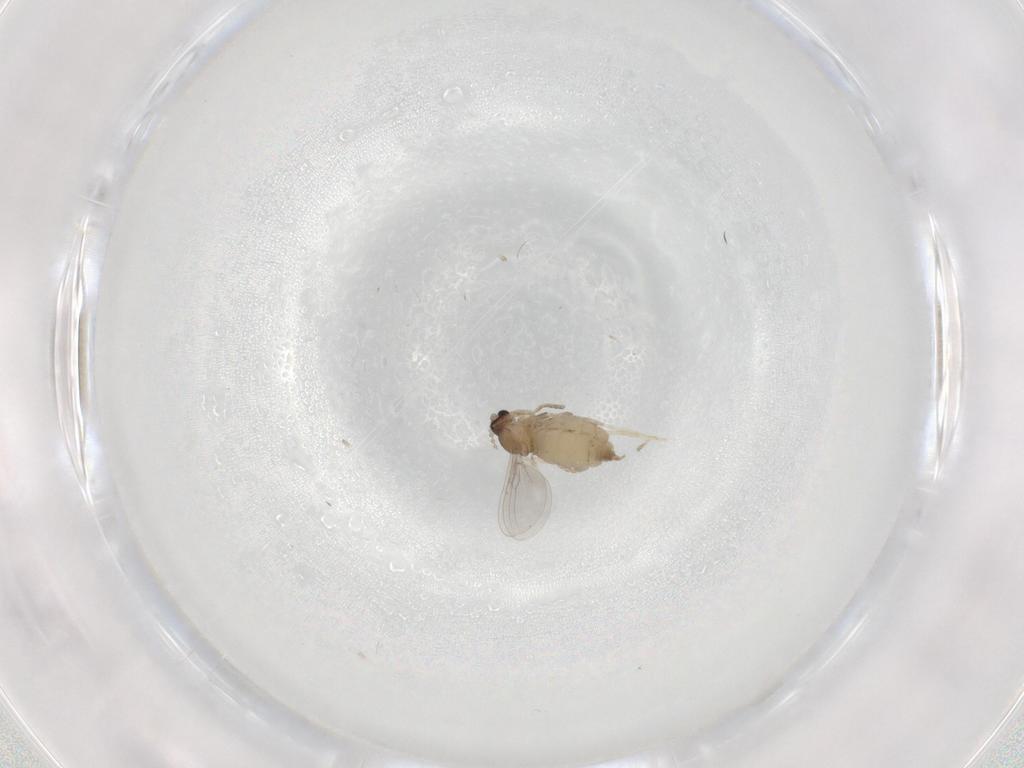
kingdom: Animalia
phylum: Arthropoda
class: Insecta
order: Diptera
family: Cecidomyiidae
